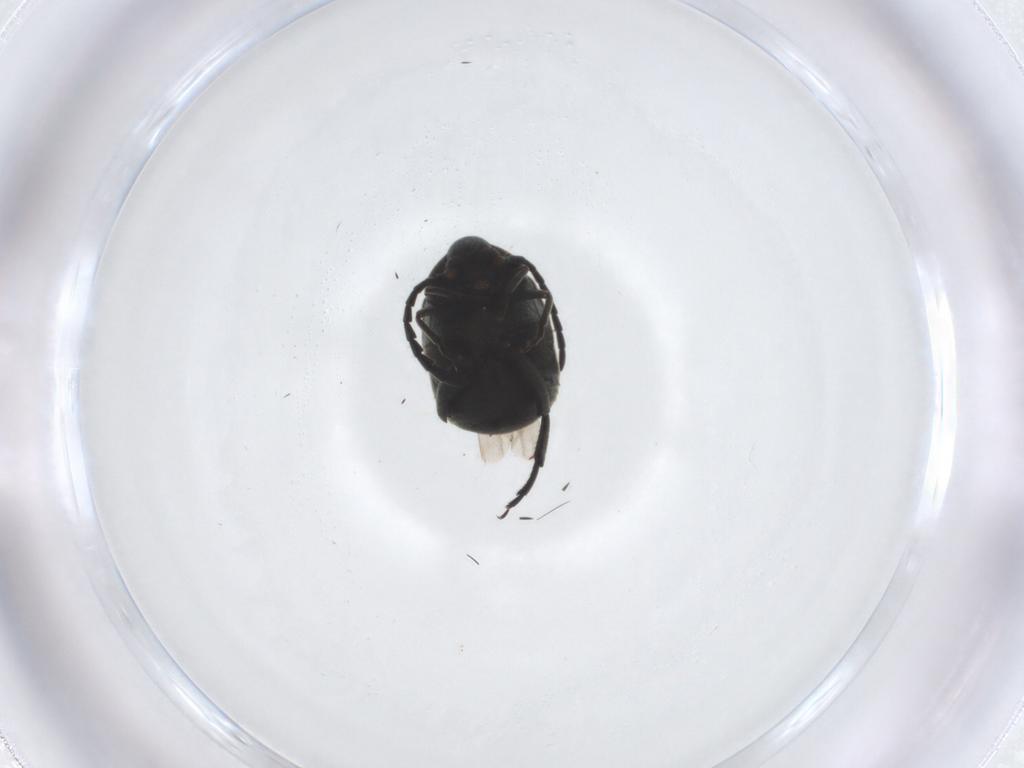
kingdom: Animalia
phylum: Arthropoda
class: Insecta
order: Coleoptera
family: Chrysomelidae
